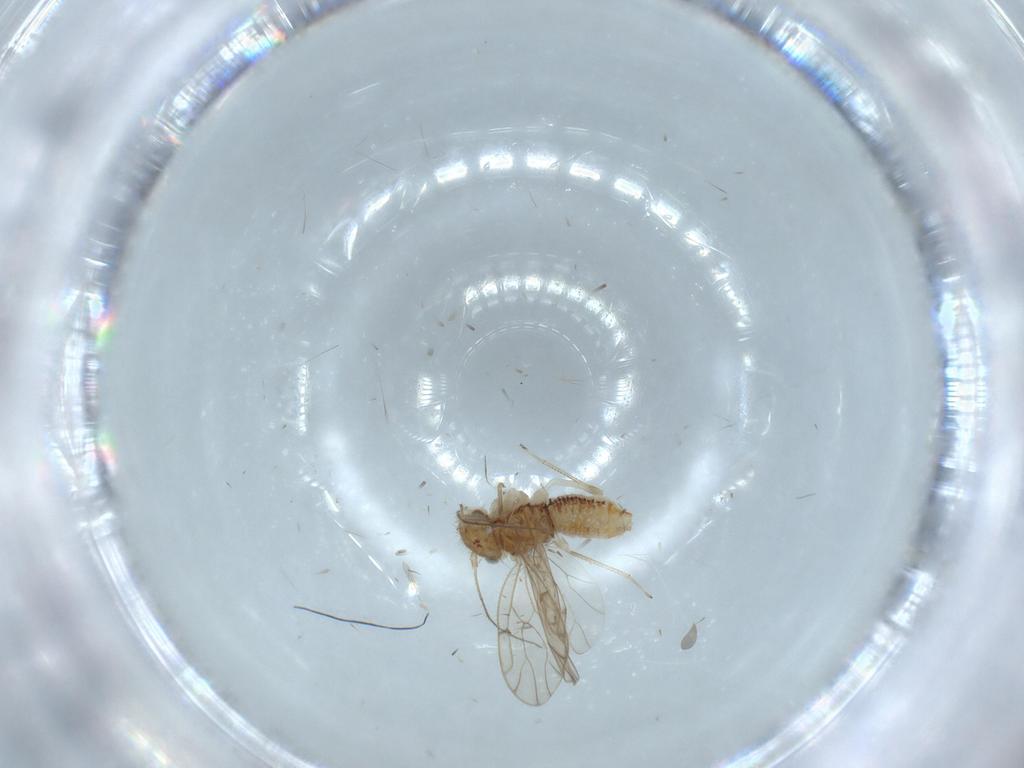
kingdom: Animalia
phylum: Arthropoda
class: Insecta
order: Psocodea
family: Ectopsocidae
